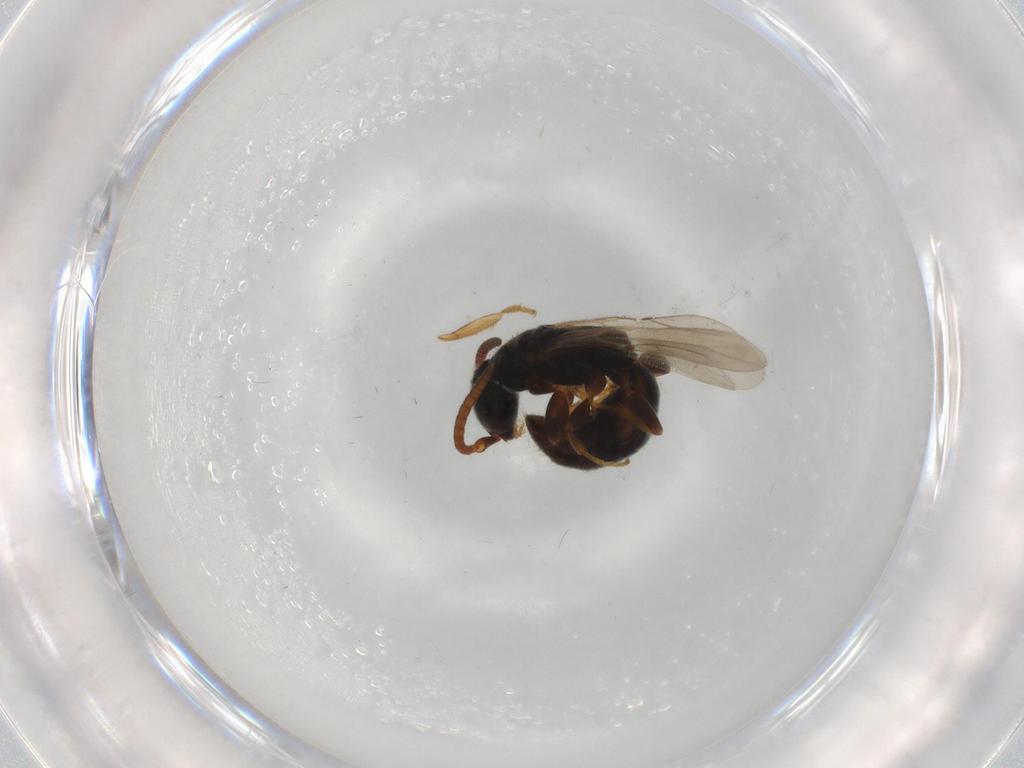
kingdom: Animalia
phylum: Arthropoda
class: Insecta
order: Hymenoptera
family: Bethylidae
